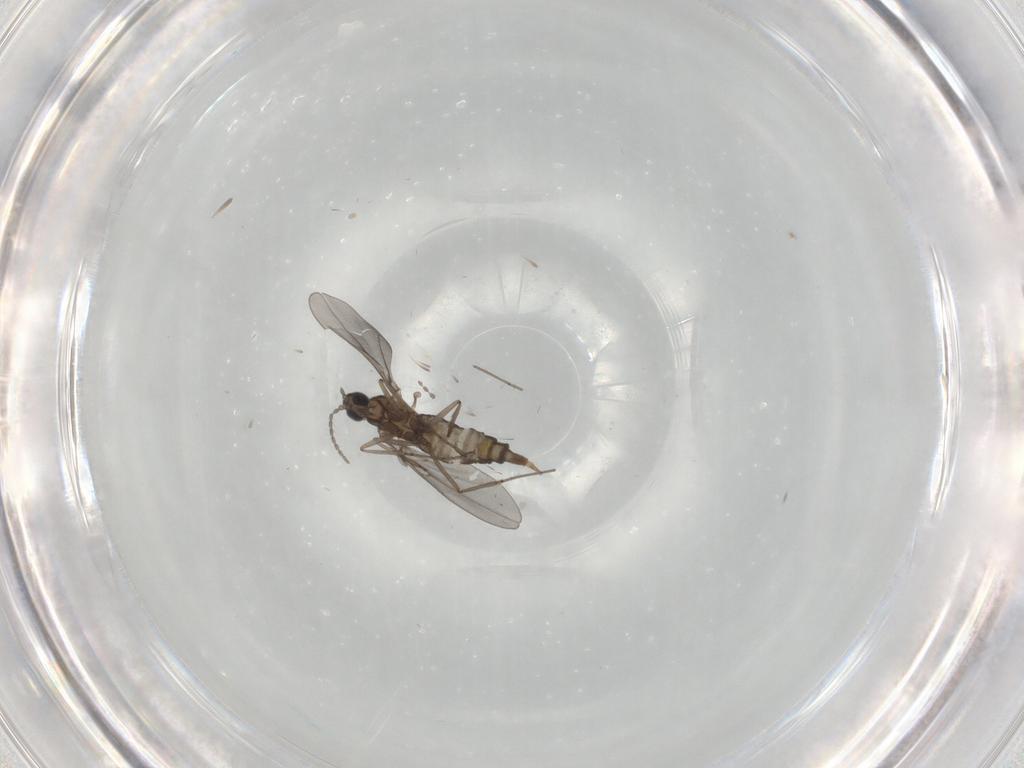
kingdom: Animalia
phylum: Arthropoda
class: Insecta
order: Diptera
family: Cecidomyiidae
